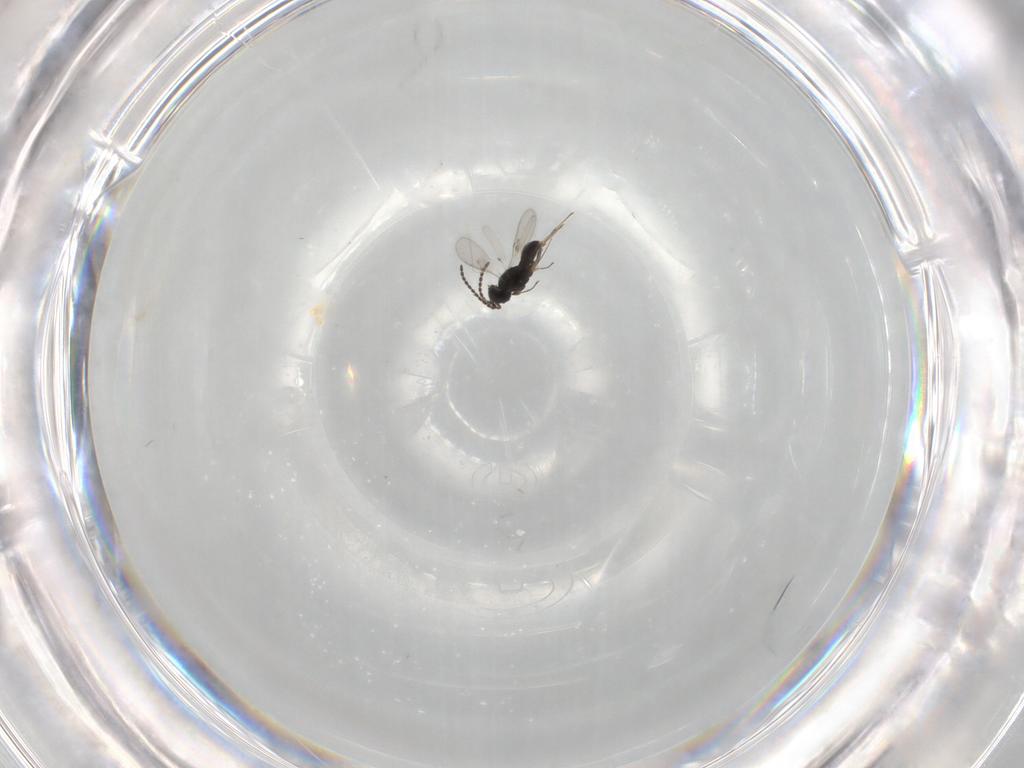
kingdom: Animalia
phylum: Arthropoda
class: Insecta
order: Hymenoptera
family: Scelionidae
